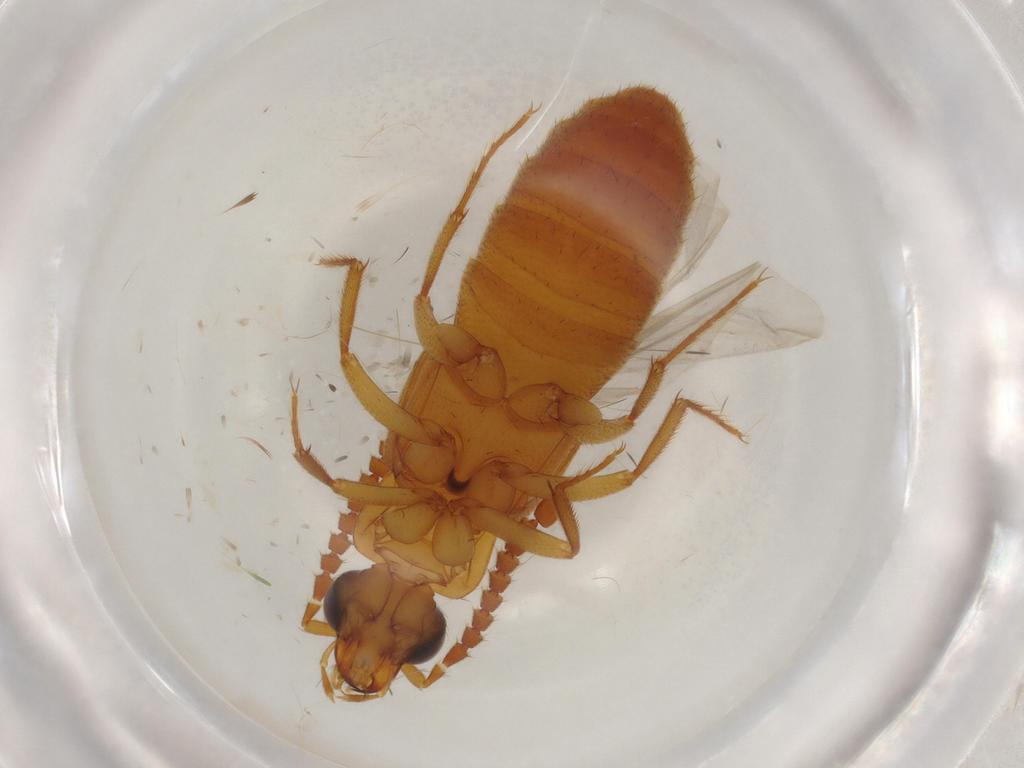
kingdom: Animalia
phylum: Arthropoda
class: Insecta
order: Coleoptera
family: Staphylinidae
